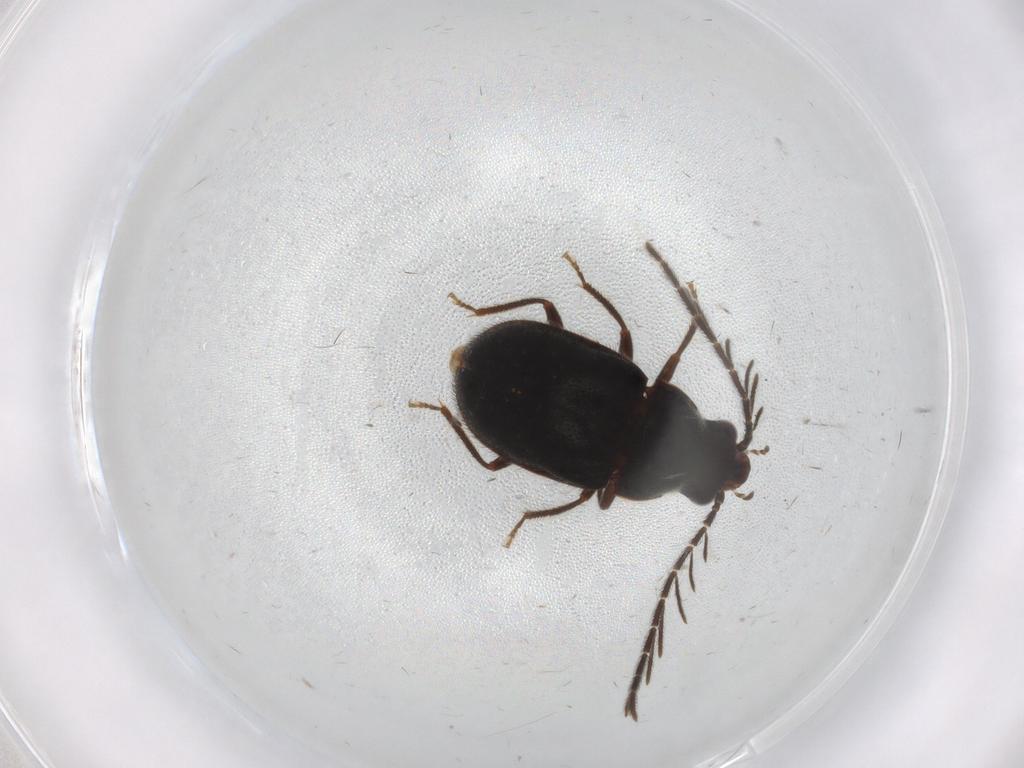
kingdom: Animalia
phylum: Arthropoda
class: Insecta
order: Coleoptera
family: Ptilodactylidae
